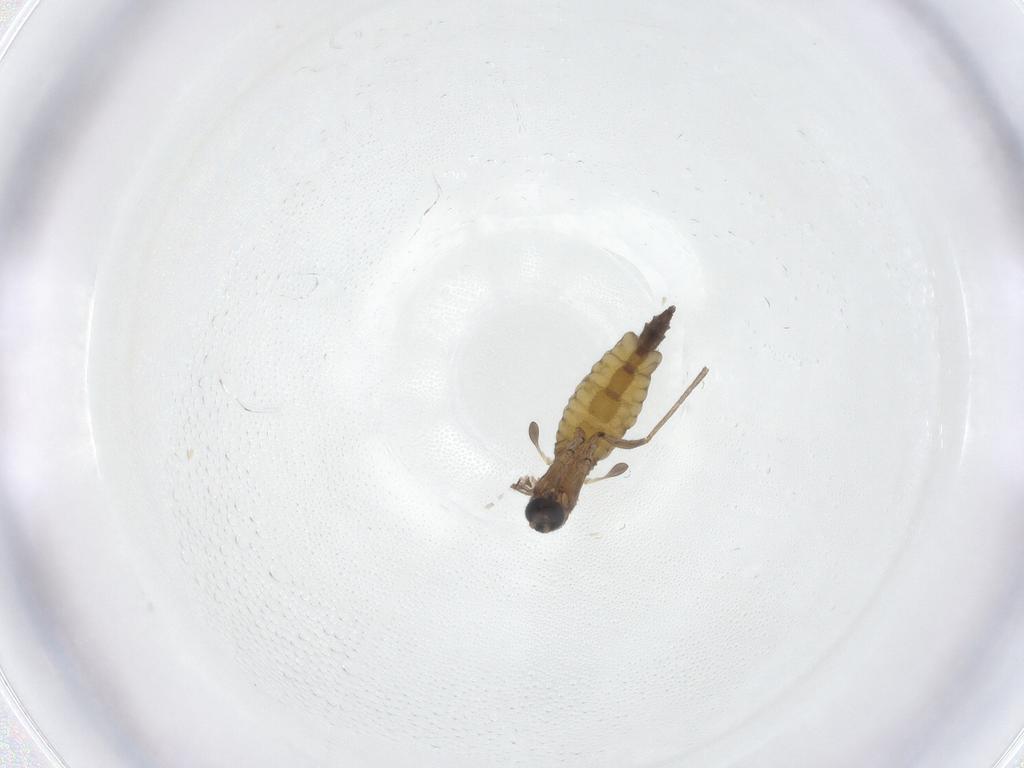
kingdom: Animalia
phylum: Arthropoda
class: Insecta
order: Diptera
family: Sciaridae
